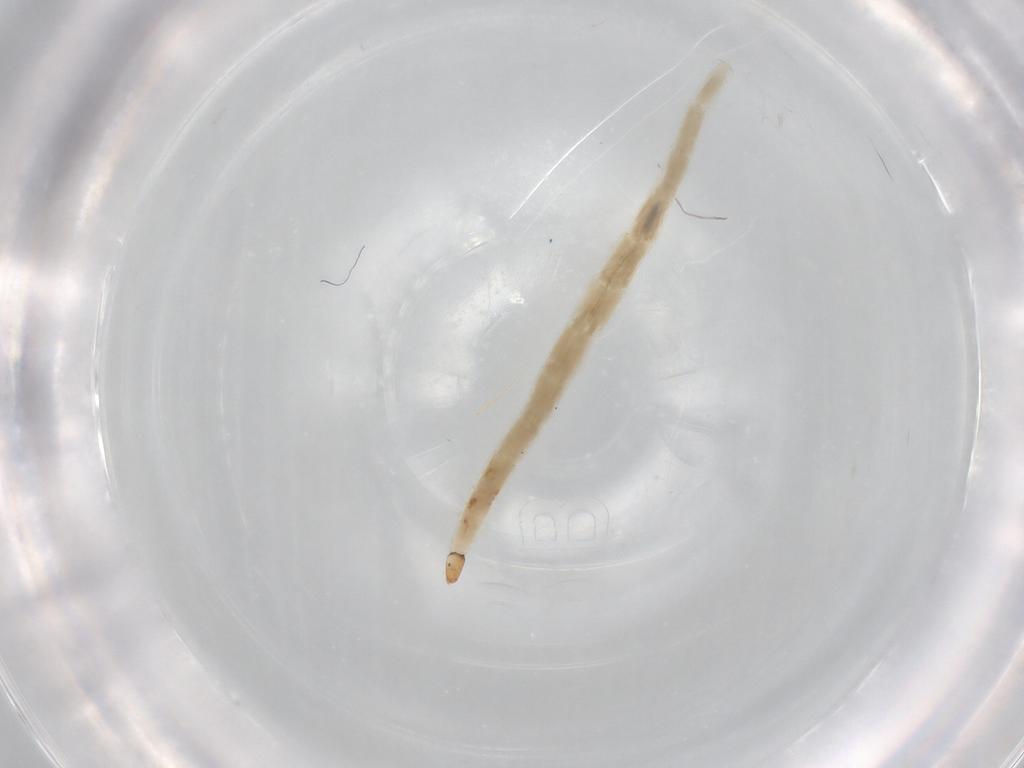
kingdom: Animalia
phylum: Arthropoda
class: Insecta
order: Diptera
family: Ceratopogonidae
